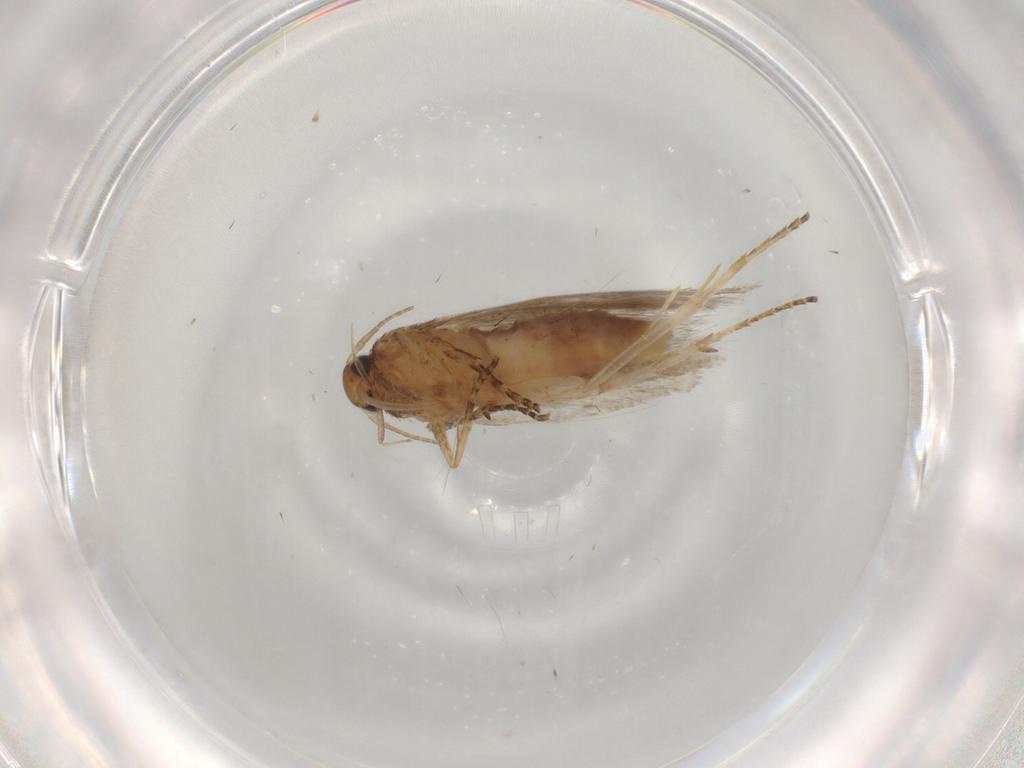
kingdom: Animalia
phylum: Arthropoda
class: Insecta
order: Lepidoptera
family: Gelechiidae
